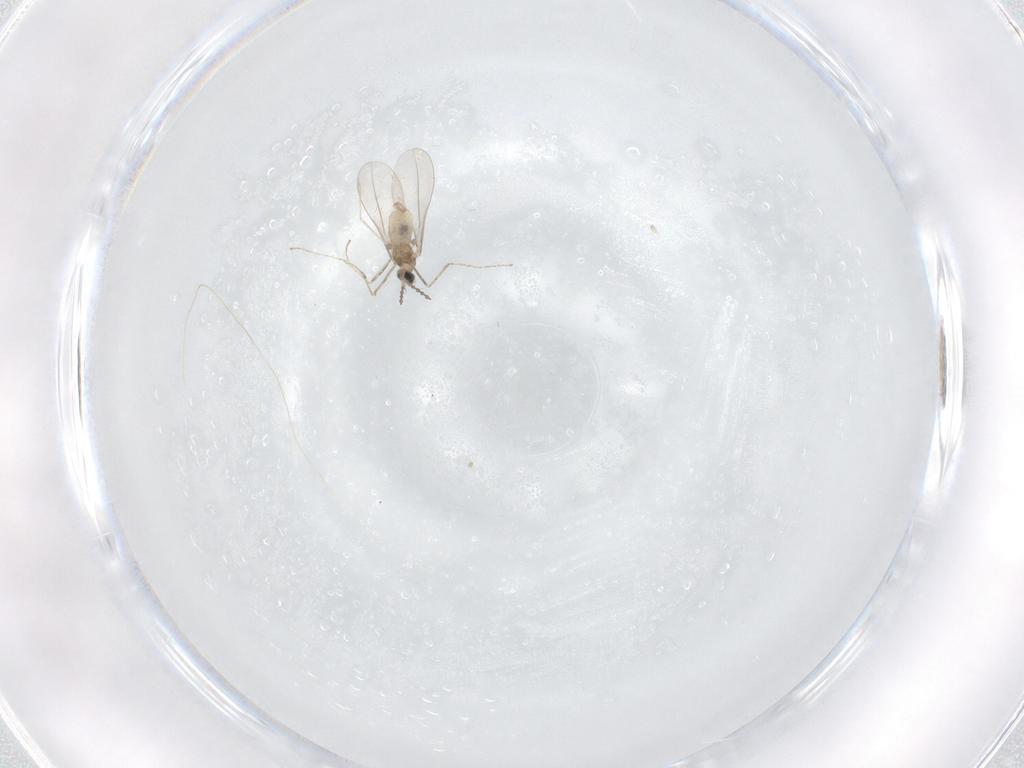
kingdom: Animalia
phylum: Arthropoda
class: Insecta
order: Diptera
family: Cecidomyiidae
